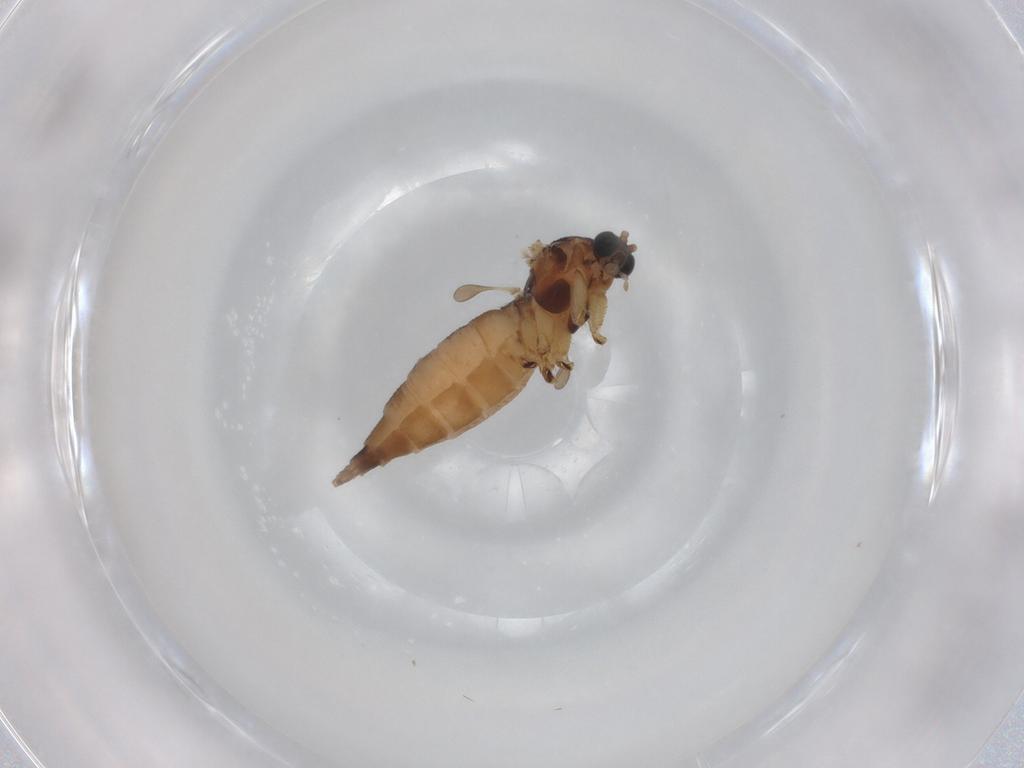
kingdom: Animalia
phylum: Arthropoda
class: Insecta
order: Diptera
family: Sciaridae
